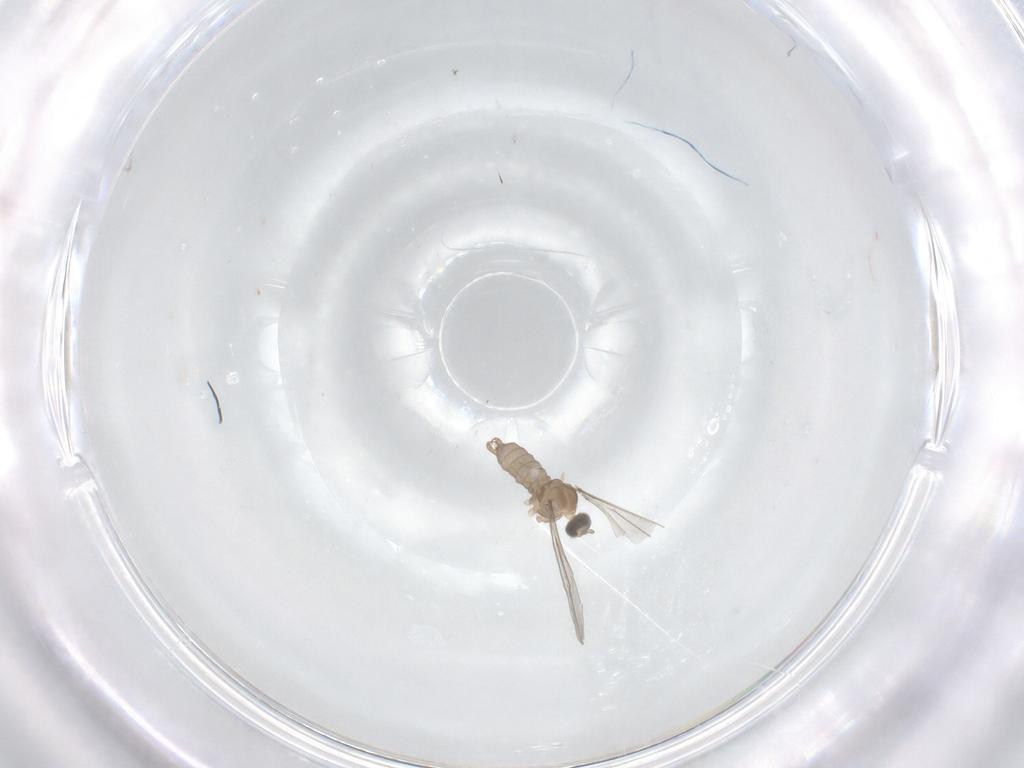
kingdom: Animalia
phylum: Arthropoda
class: Insecta
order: Diptera
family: Cecidomyiidae
